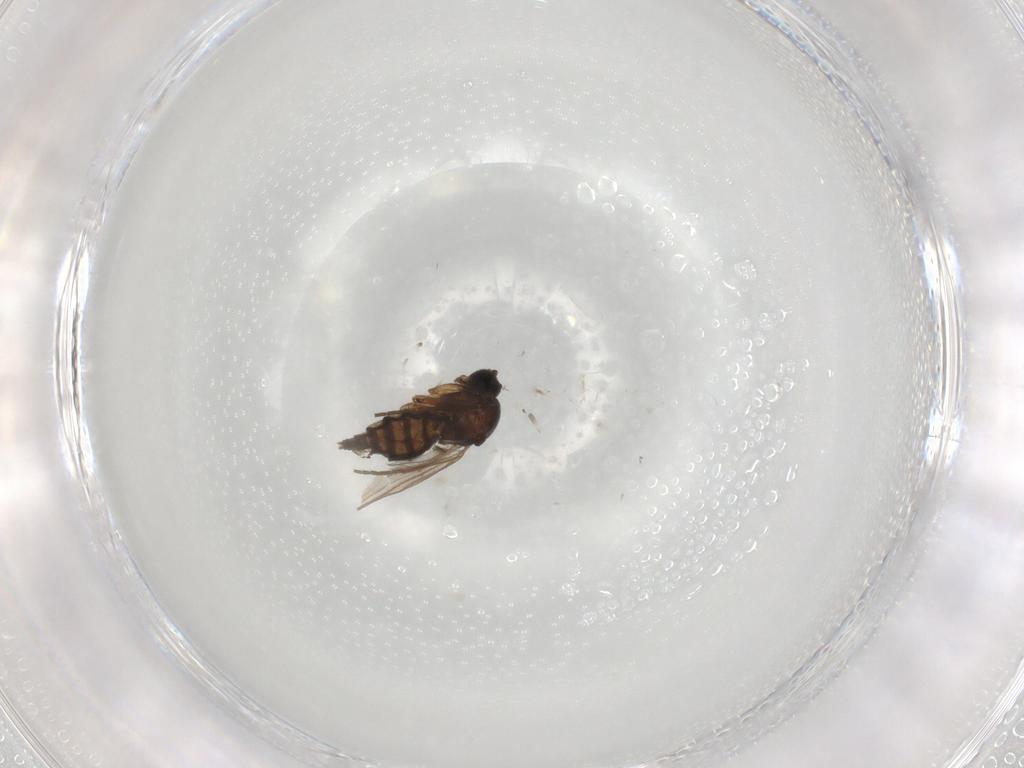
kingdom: Animalia
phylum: Arthropoda
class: Insecta
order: Diptera
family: Sciaridae
